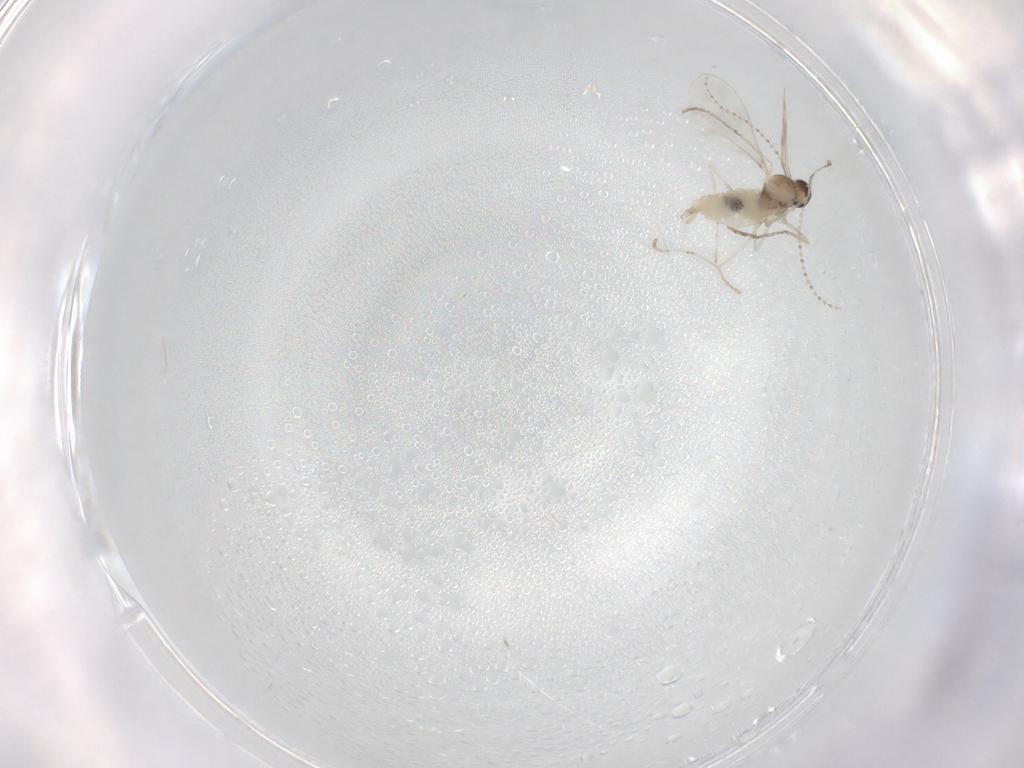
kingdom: Animalia
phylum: Arthropoda
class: Insecta
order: Diptera
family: Cecidomyiidae
